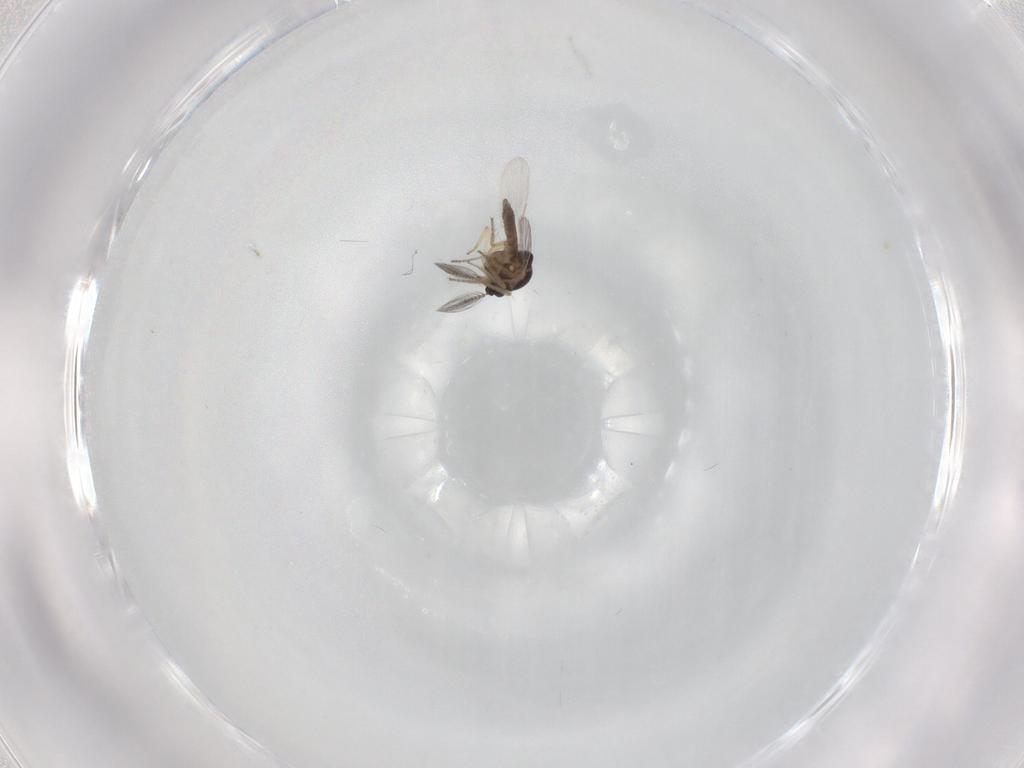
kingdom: Animalia
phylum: Arthropoda
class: Insecta
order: Diptera
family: Ceratopogonidae
